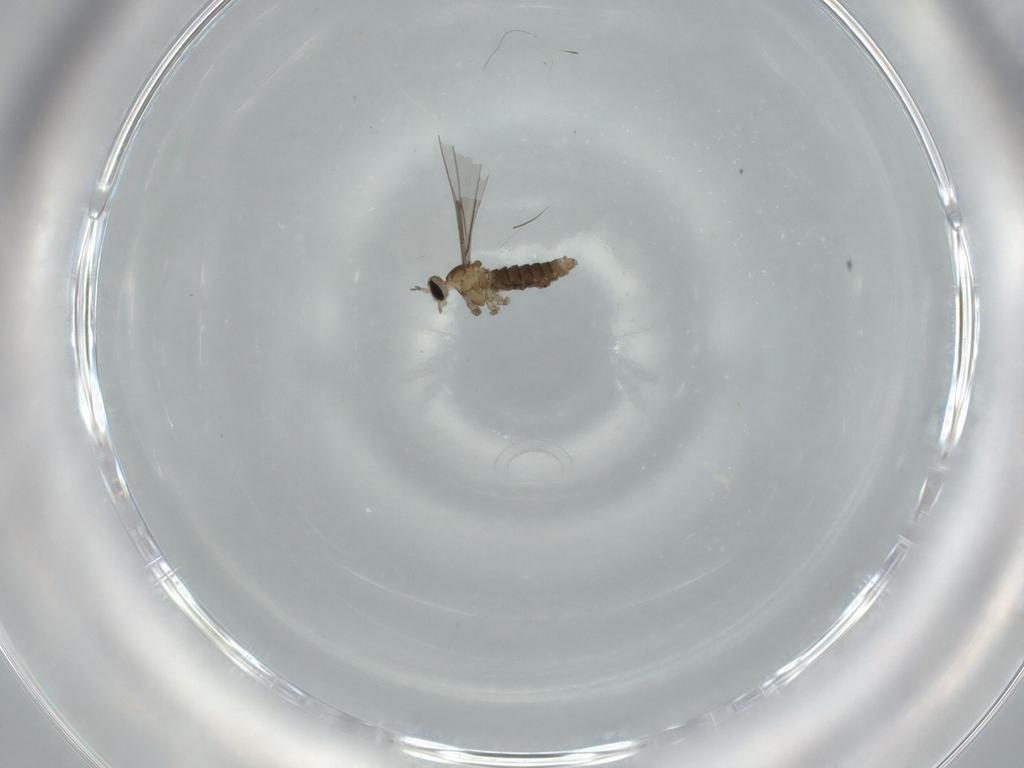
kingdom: Animalia
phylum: Arthropoda
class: Insecta
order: Diptera
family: Cecidomyiidae
